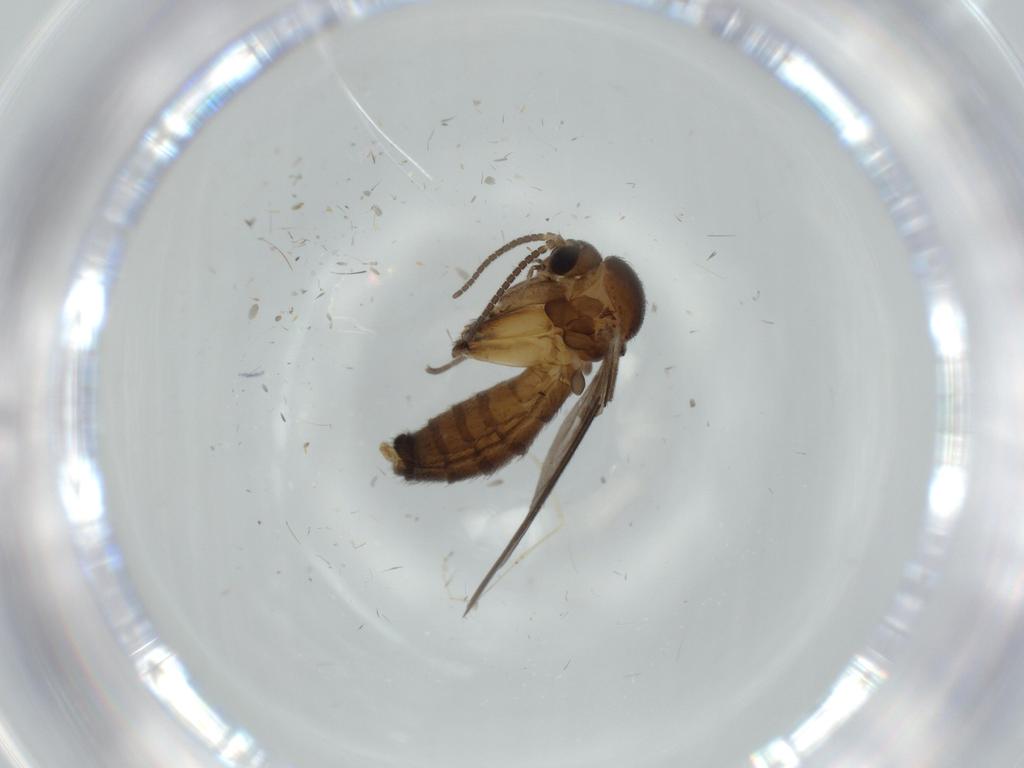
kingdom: Animalia
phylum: Arthropoda
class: Insecta
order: Diptera
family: Mycetophilidae
